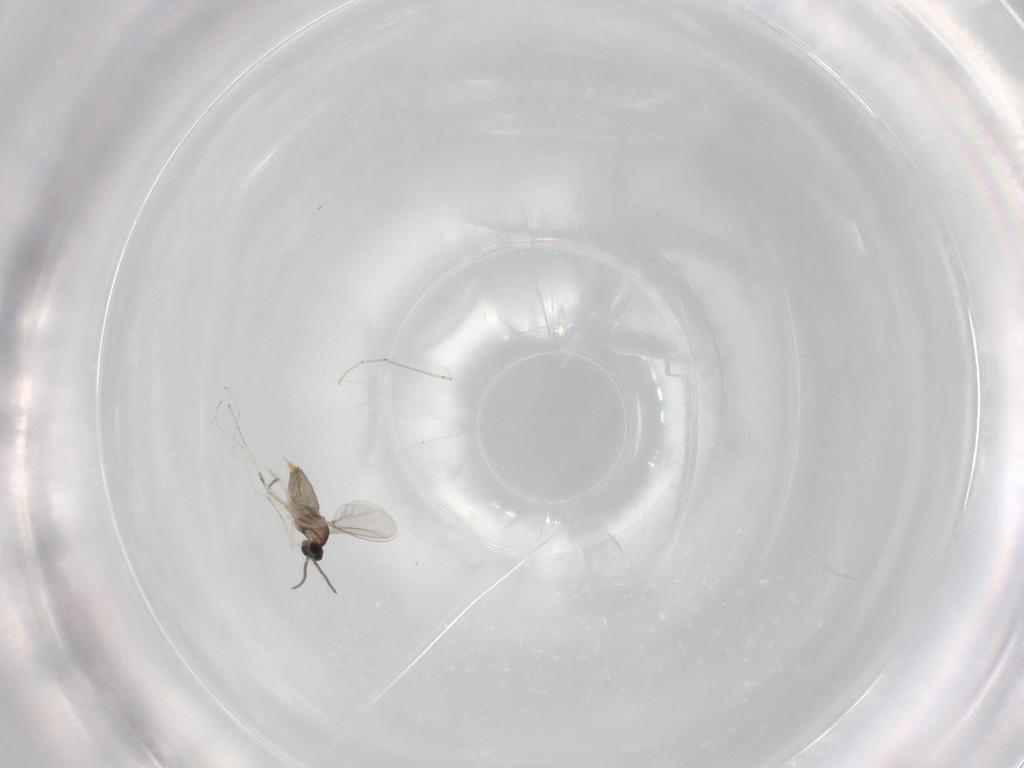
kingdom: Animalia
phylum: Arthropoda
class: Insecta
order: Diptera
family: Cecidomyiidae
